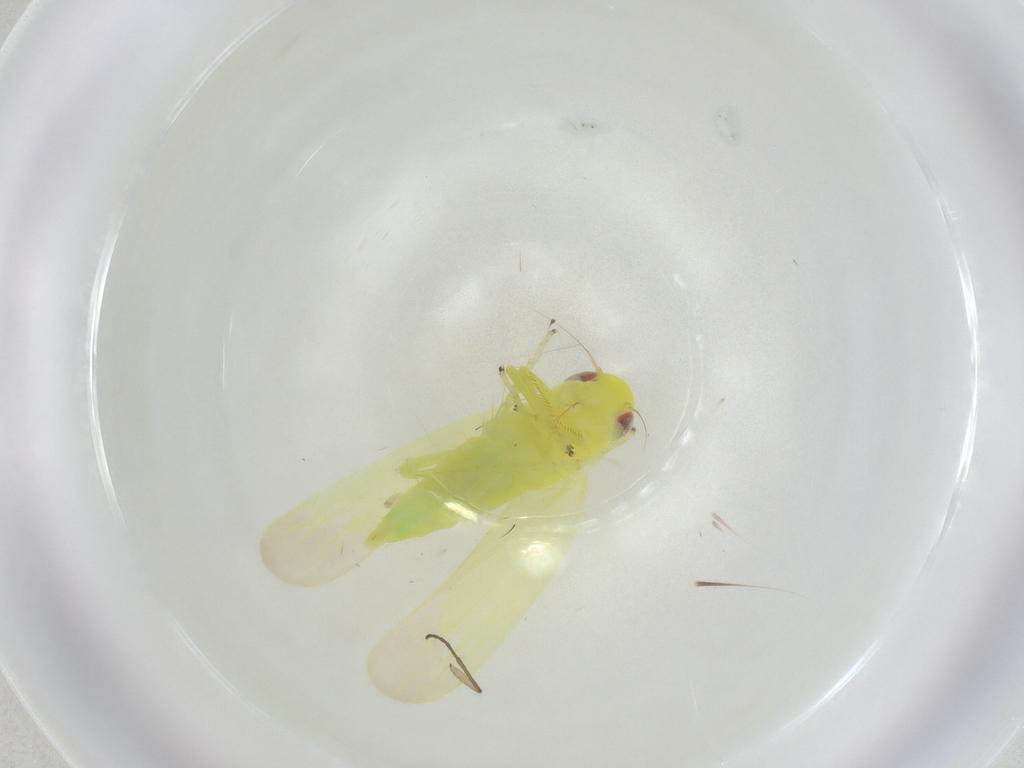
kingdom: Animalia
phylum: Arthropoda
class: Insecta
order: Hemiptera
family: Cicadellidae
